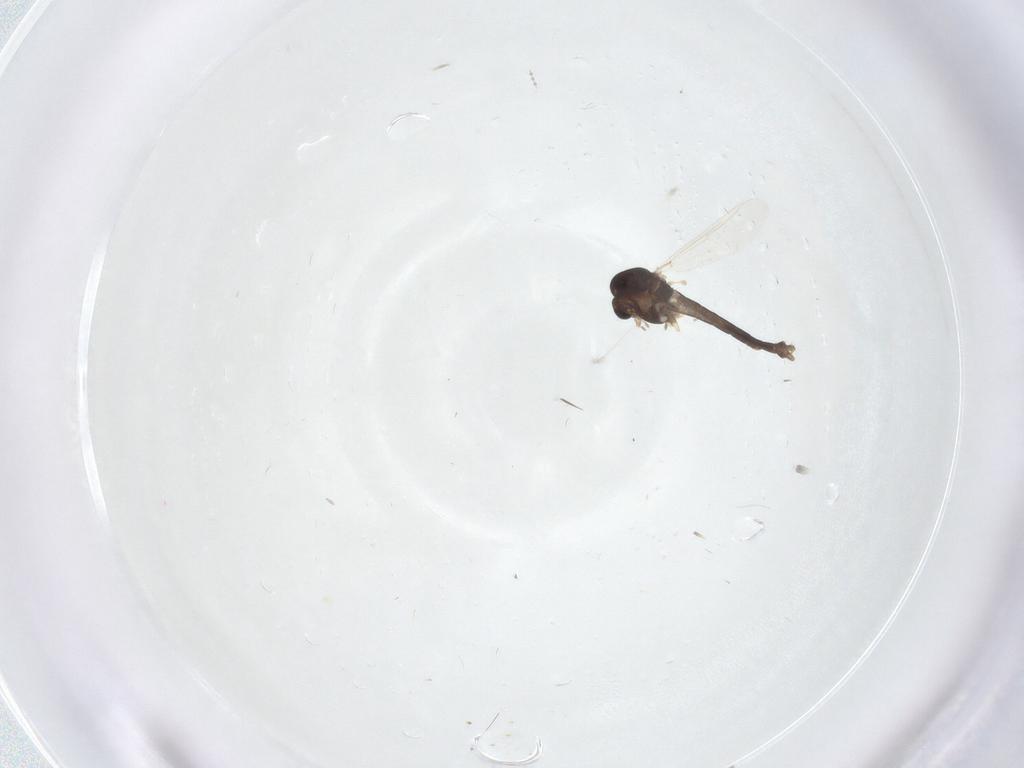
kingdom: Animalia
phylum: Arthropoda
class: Insecta
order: Diptera
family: Chironomidae
